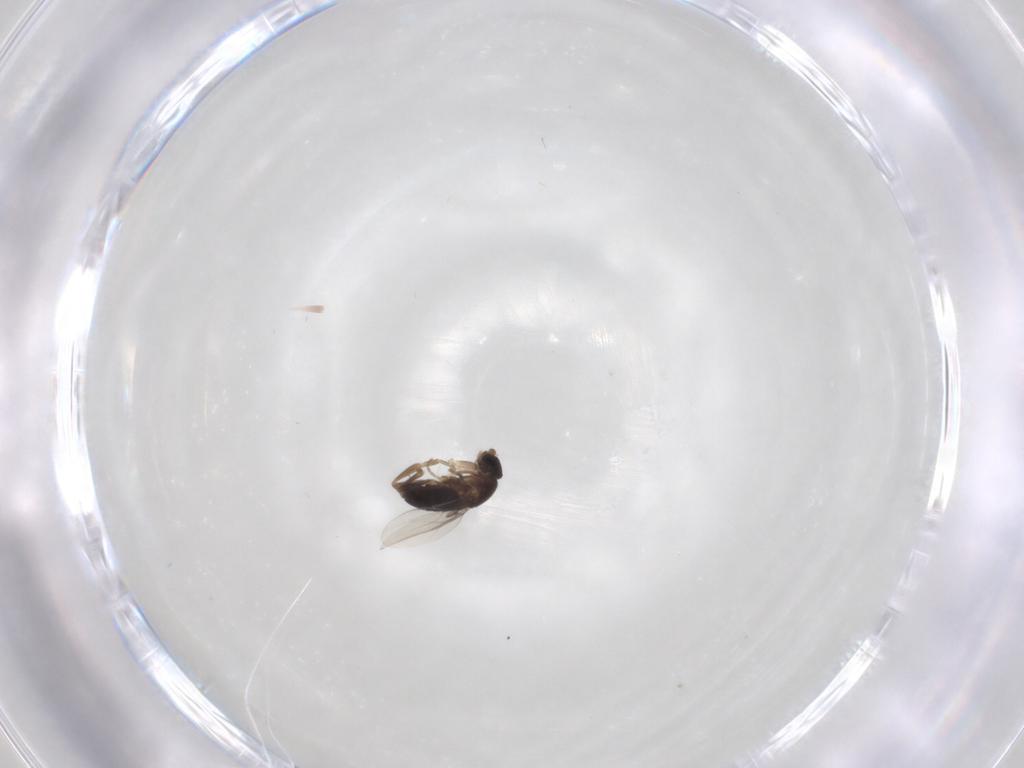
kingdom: Animalia
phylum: Arthropoda
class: Insecta
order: Diptera
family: Phoridae
